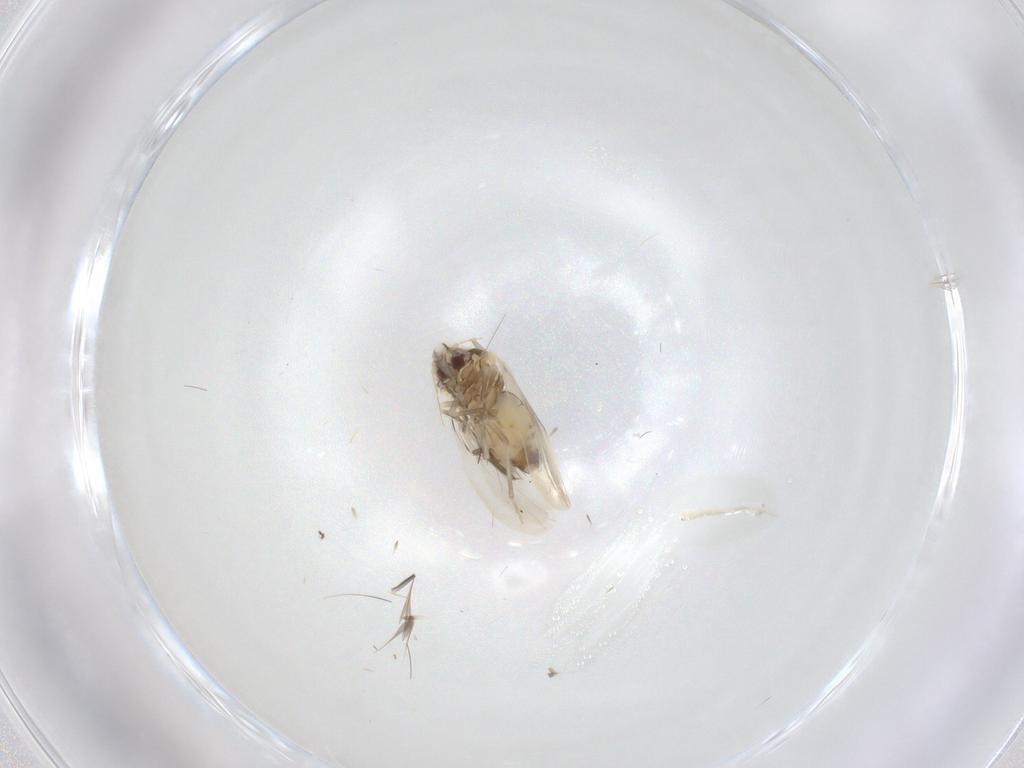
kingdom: Animalia
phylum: Arthropoda
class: Insecta
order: Hemiptera
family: Aleyrodidae
